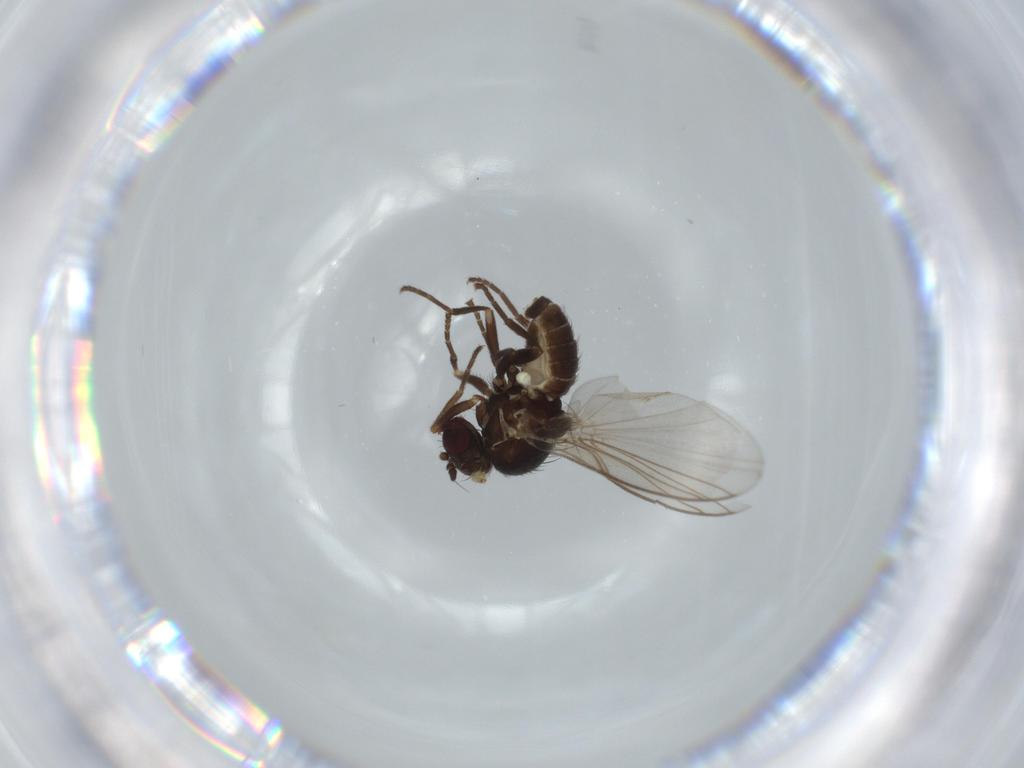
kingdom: Animalia
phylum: Arthropoda
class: Insecta
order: Diptera
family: Agromyzidae
